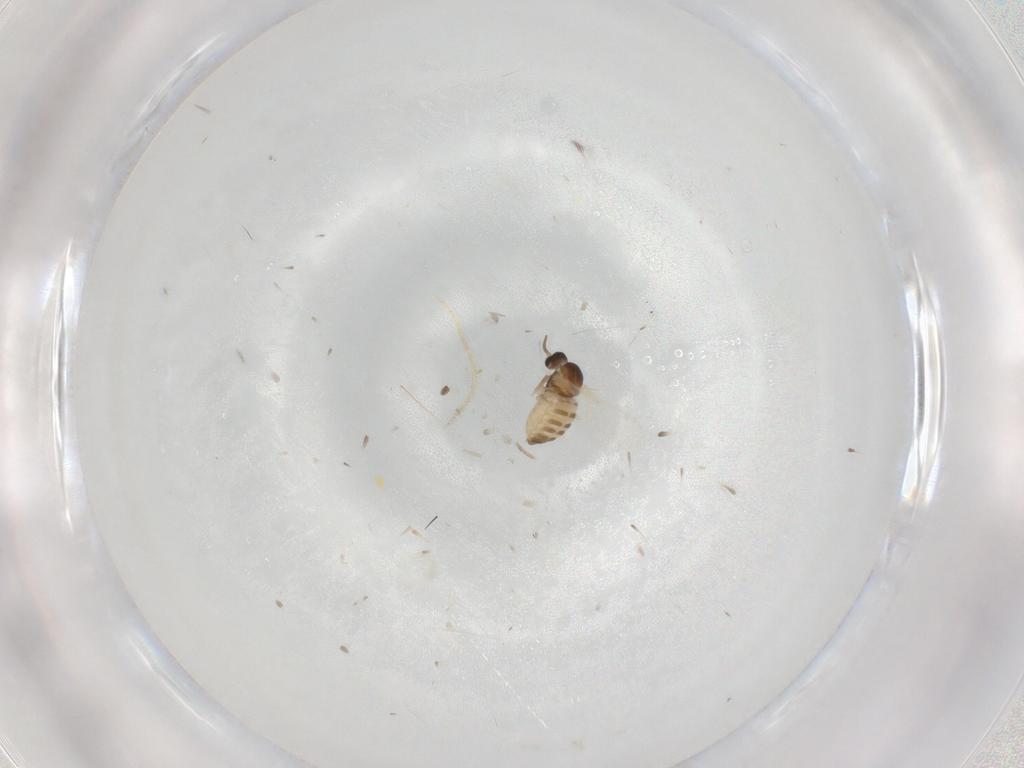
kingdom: Animalia
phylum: Arthropoda
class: Insecta
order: Diptera
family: Cecidomyiidae
